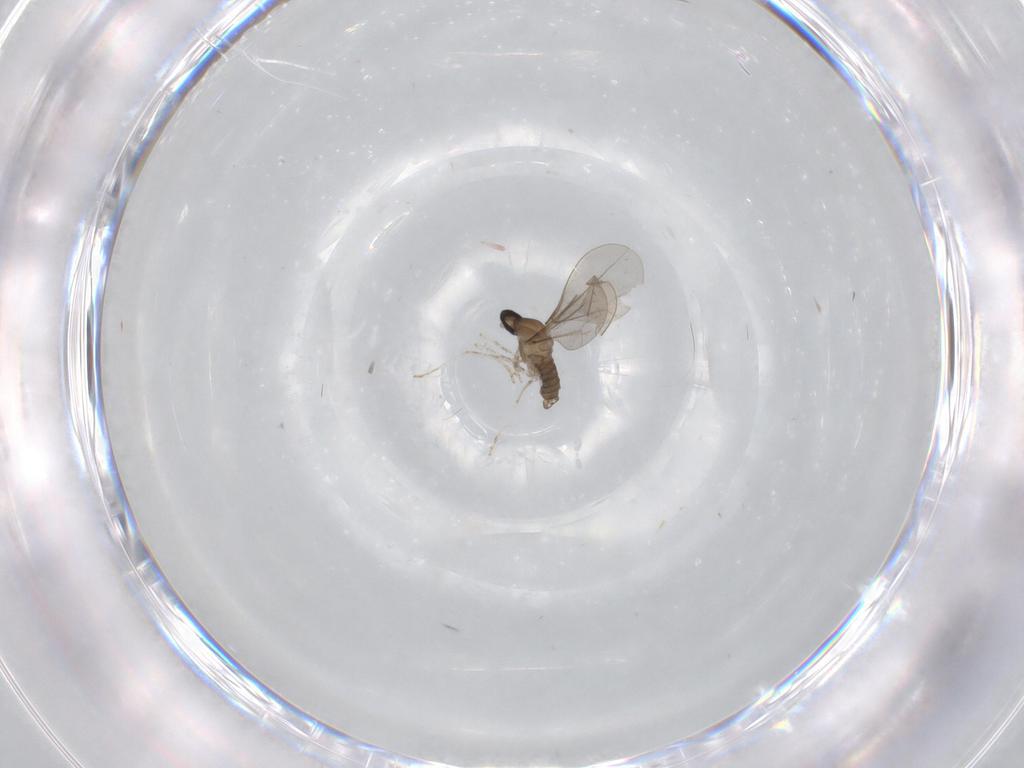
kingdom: Animalia
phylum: Arthropoda
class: Insecta
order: Diptera
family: Cecidomyiidae
